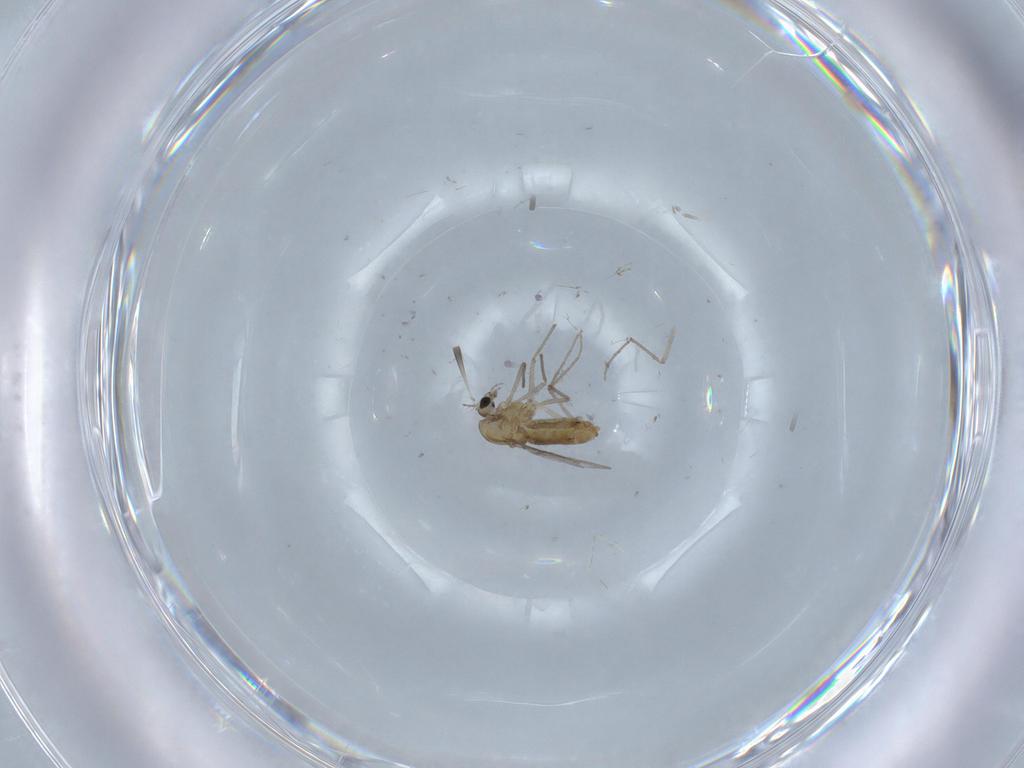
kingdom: Animalia
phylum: Arthropoda
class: Insecta
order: Diptera
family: Chironomidae
